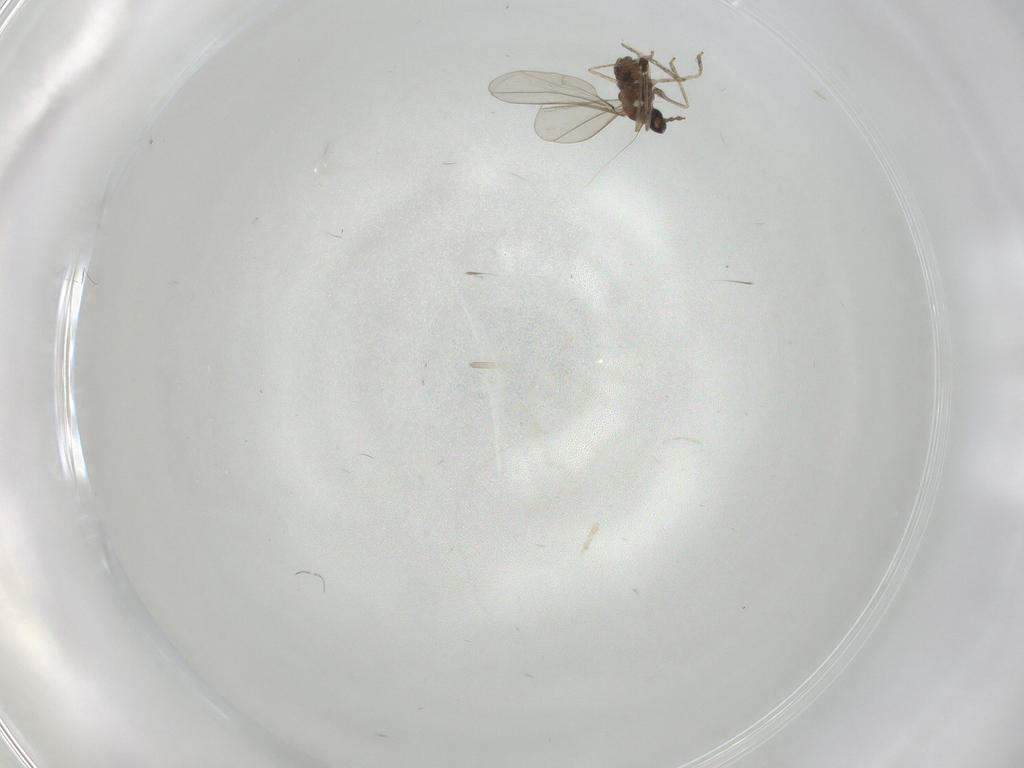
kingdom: Animalia
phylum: Arthropoda
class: Insecta
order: Diptera
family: Cecidomyiidae
